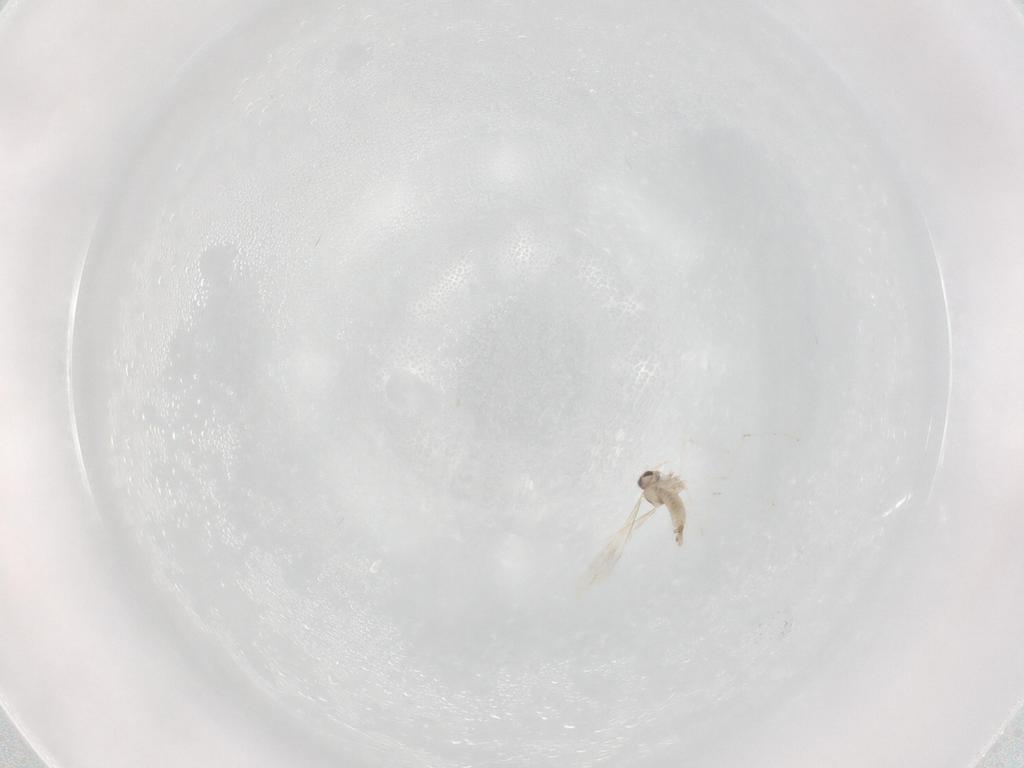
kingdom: Animalia
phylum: Arthropoda
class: Insecta
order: Diptera
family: Cecidomyiidae
